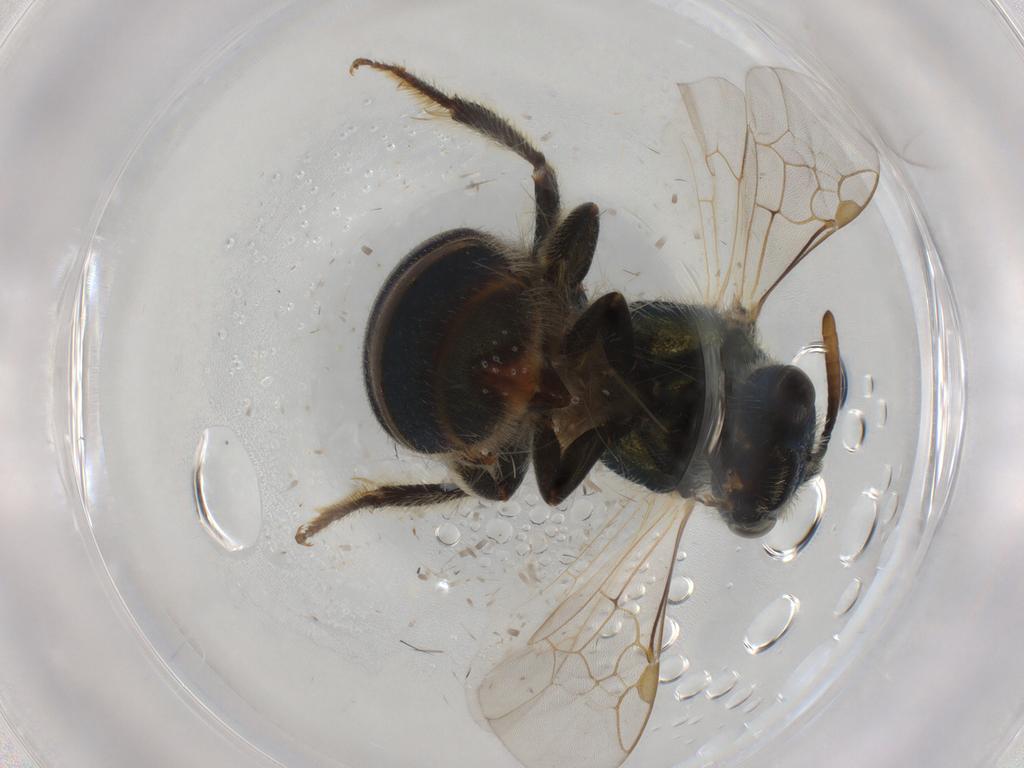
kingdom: Animalia
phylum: Arthropoda
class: Insecta
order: Hymenoptera
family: Halictidae
